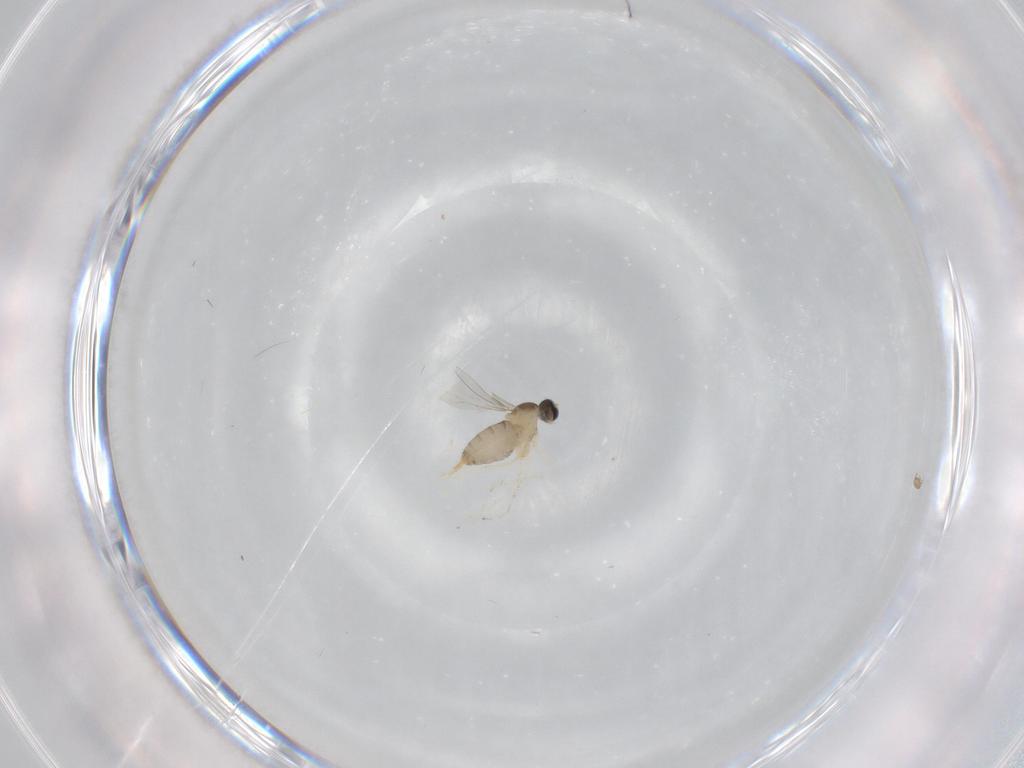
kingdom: Animalia
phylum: Arthropoda
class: Insecta
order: Diptera
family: Cecidomyiidae
